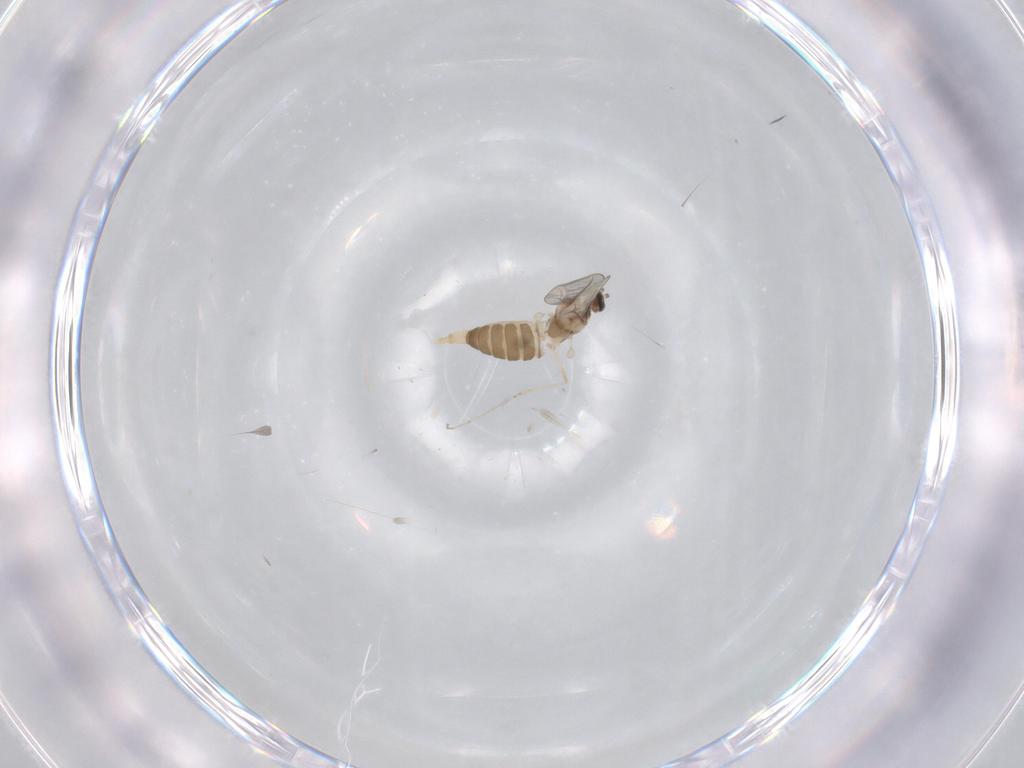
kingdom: Animalia
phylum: Arthropoda
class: Insecta
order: Diptera
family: Cecidomyiidae
